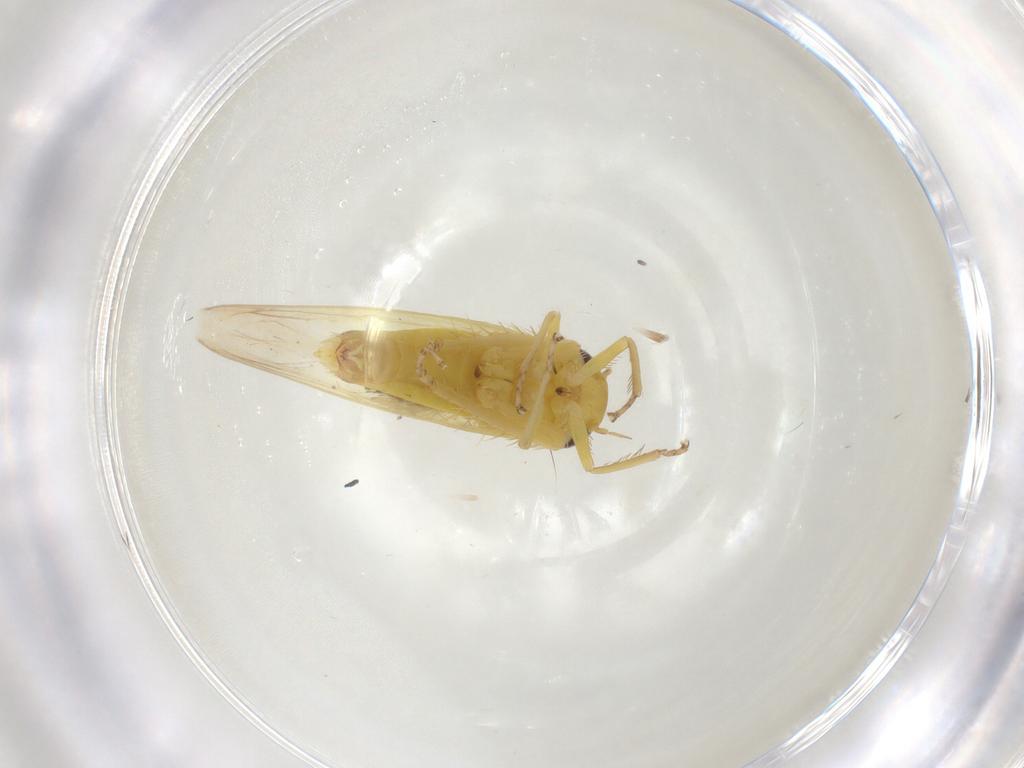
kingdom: Animalia
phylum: Arthropoda
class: Insecta
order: Hemiptera
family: Cicadellidae
